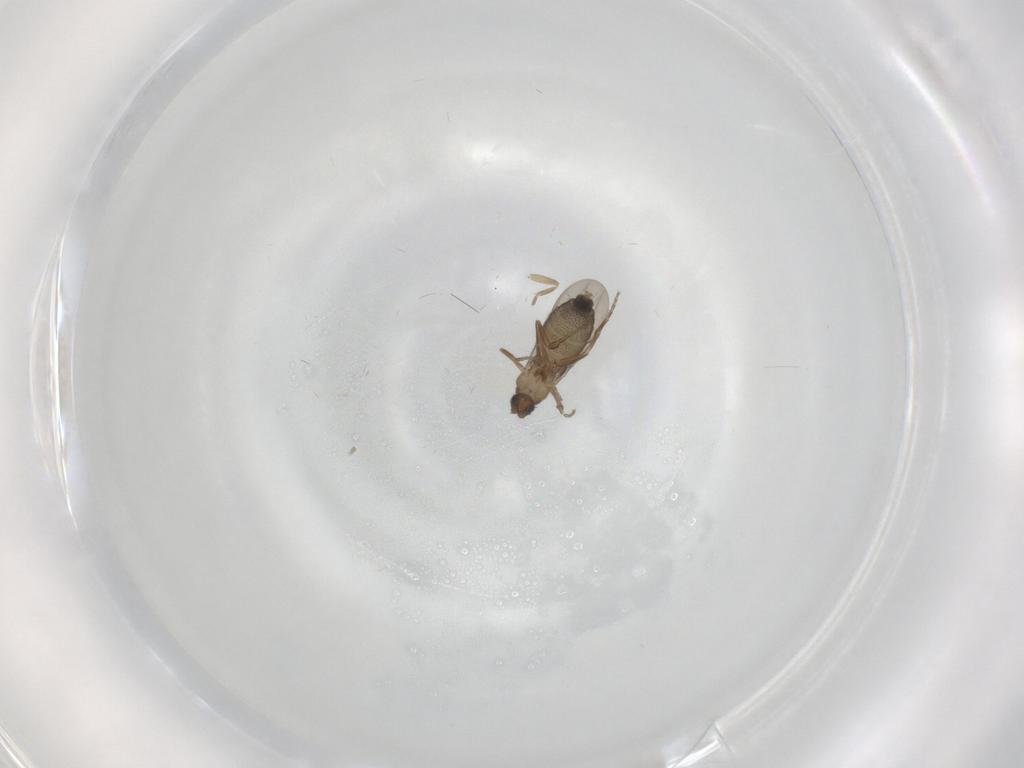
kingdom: Animalia
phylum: Arthropoda
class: Insecta
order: Diptera
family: Phoridae
